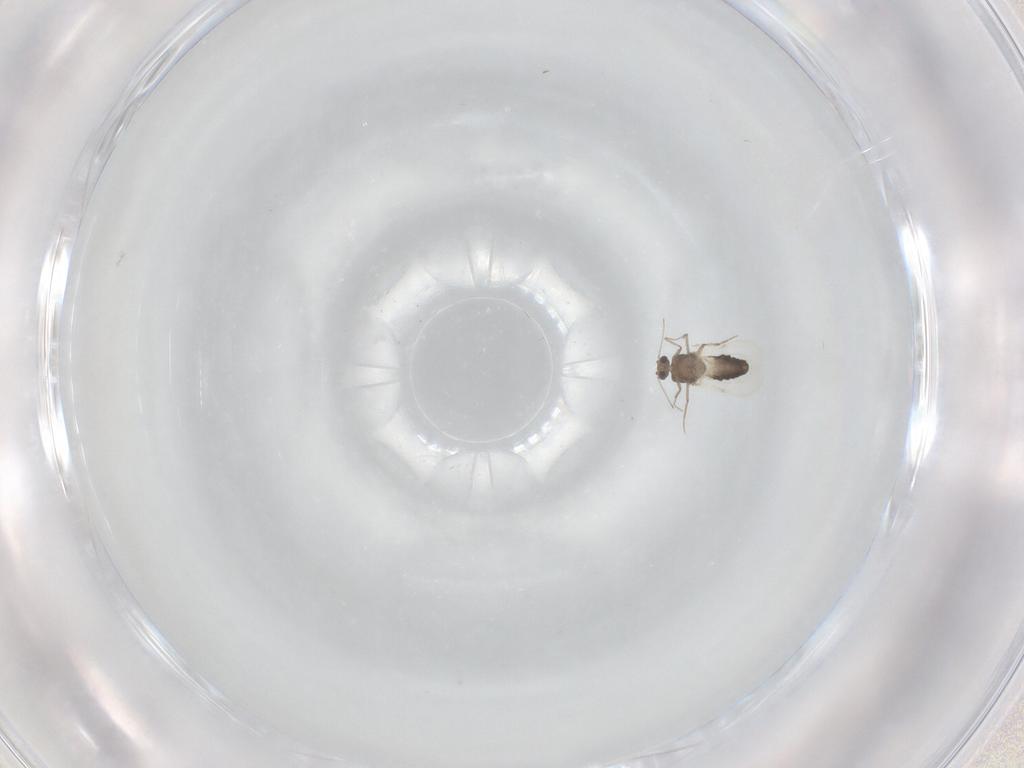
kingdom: Animalia
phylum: Arthropoda
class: Insecta
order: Diptera
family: Ceratopogonidae
